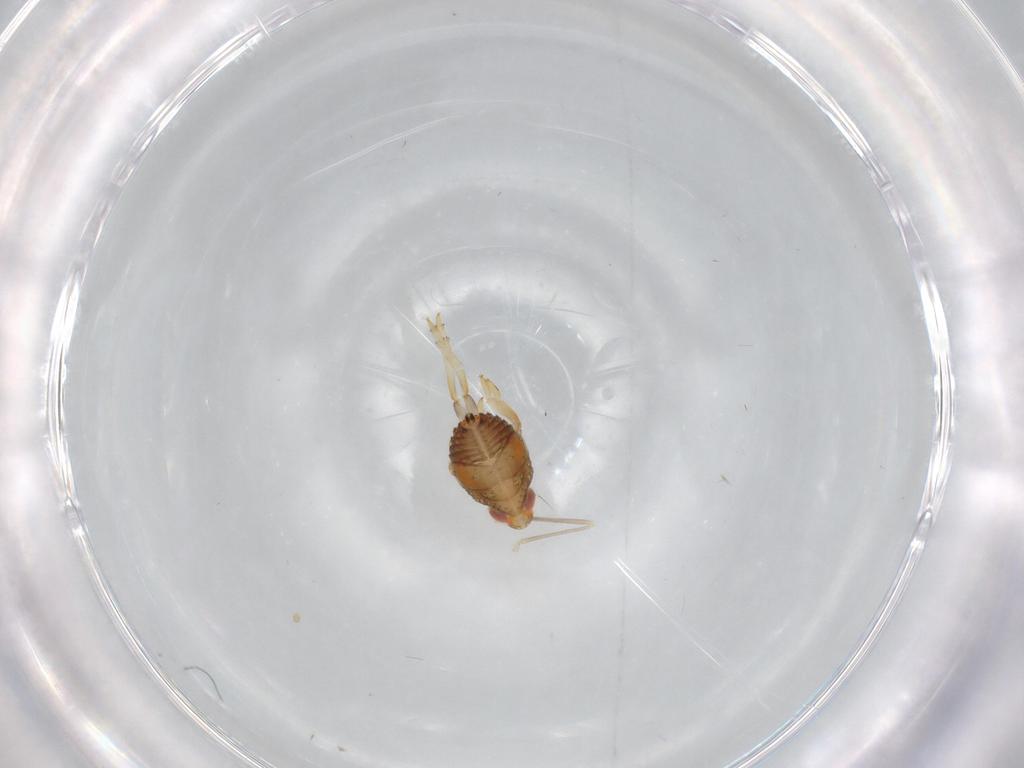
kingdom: Animalia
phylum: Arthropoda
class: Insecta
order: Hemiptera
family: Issidae
